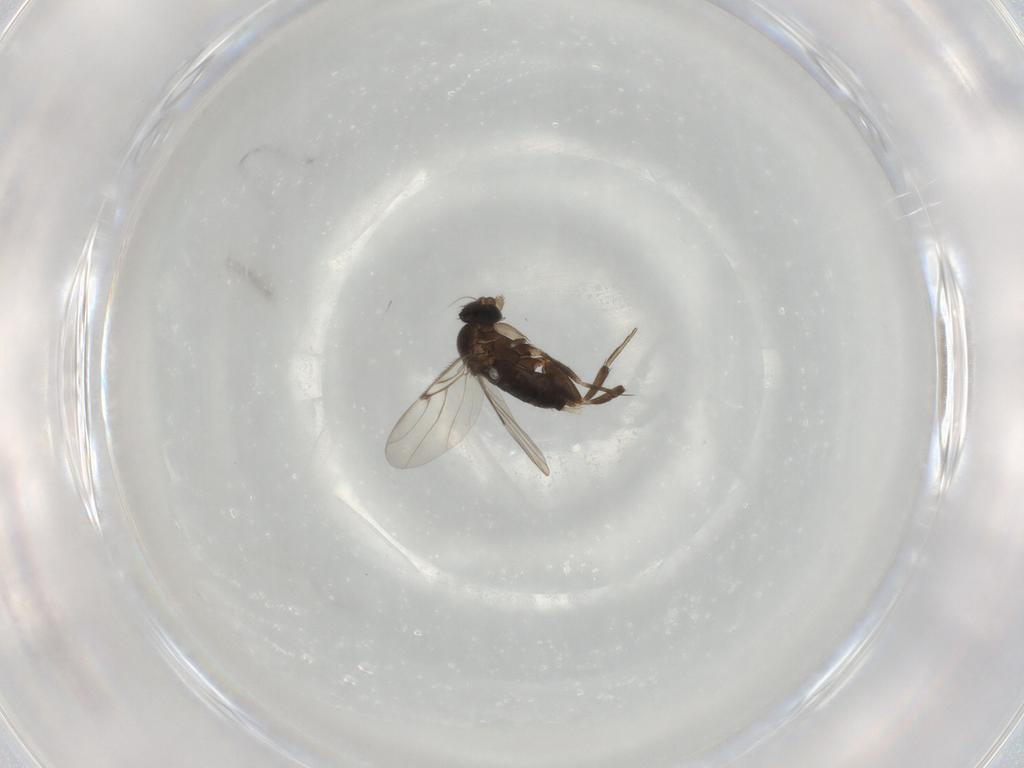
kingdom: Animalia
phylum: Arthropoda
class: Insecta
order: Diptera
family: Phoridae
